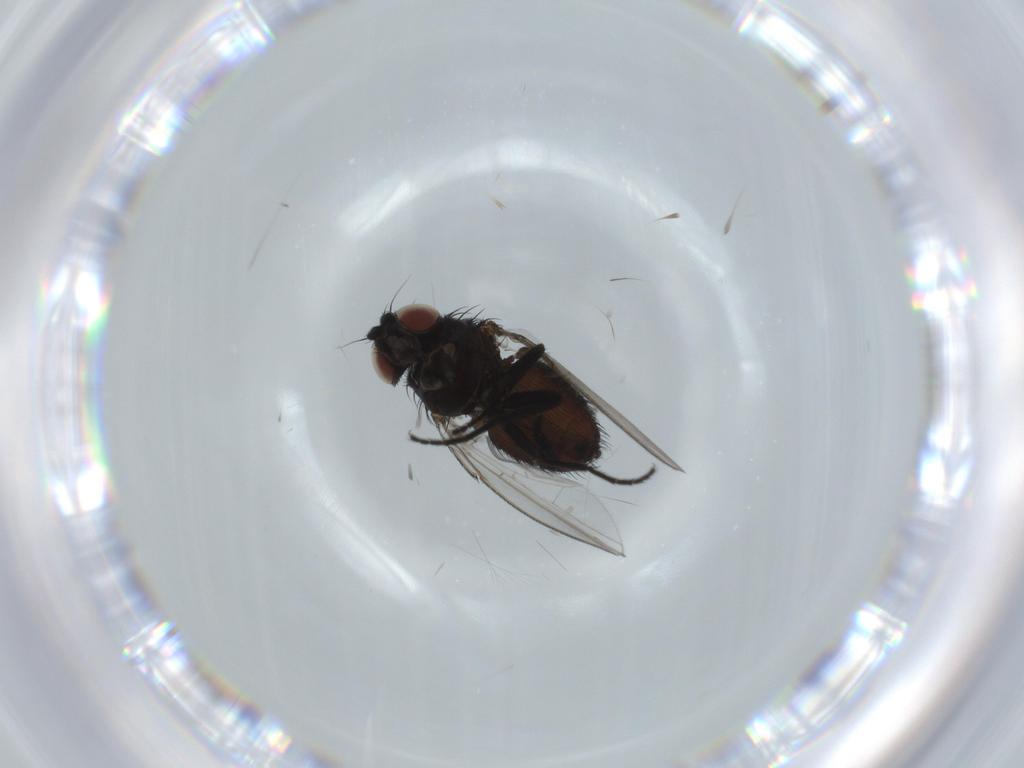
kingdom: Animalia
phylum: Arthropoda
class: Insecta
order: Diptera
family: Milichiidae
